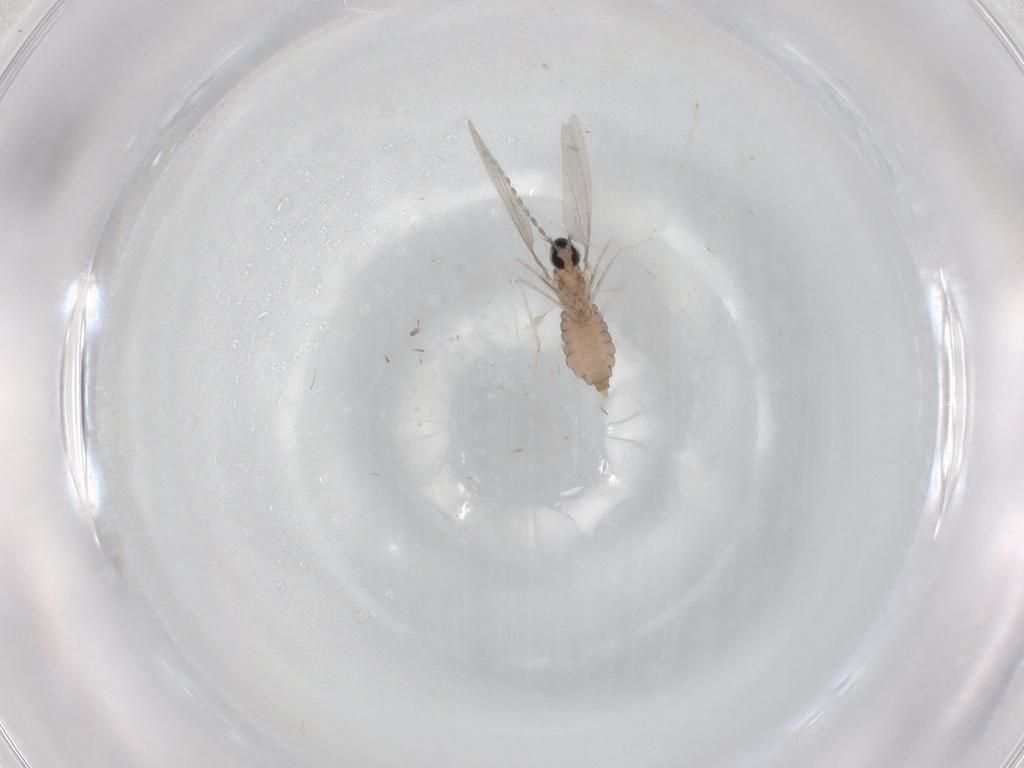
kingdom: Animalia
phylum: Arthropoda
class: Insecta
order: Diptera
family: Cecidomyiidae
